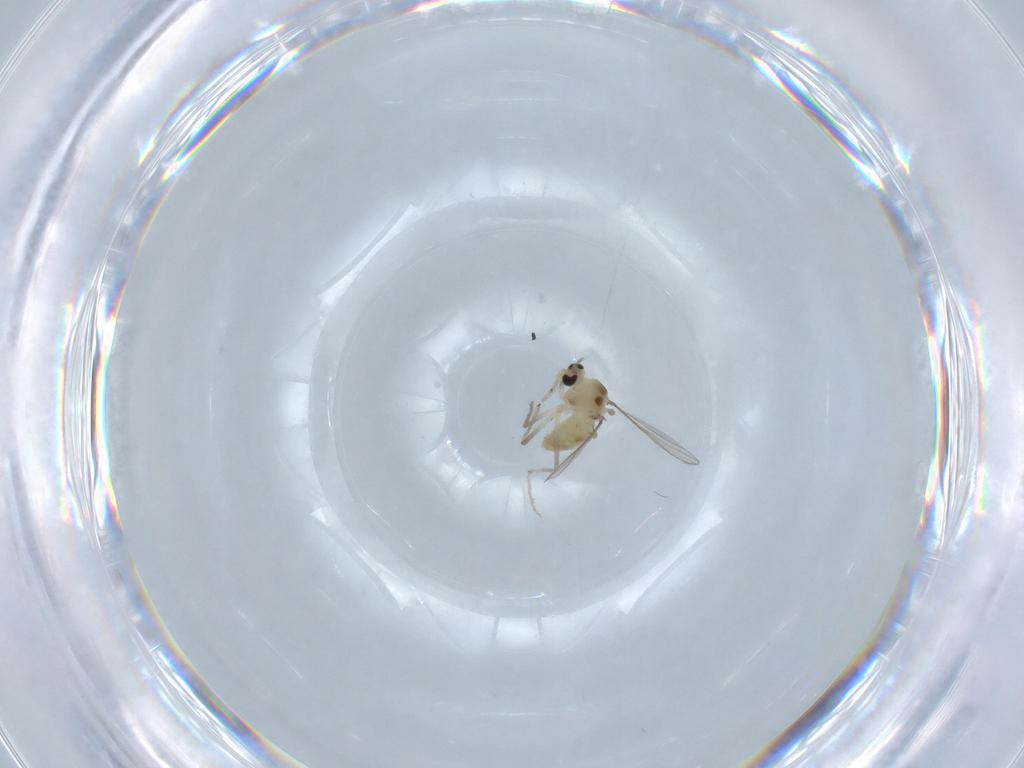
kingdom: Animalia
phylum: Arthropoda
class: Insecta
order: Diptera
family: Chironomidae
